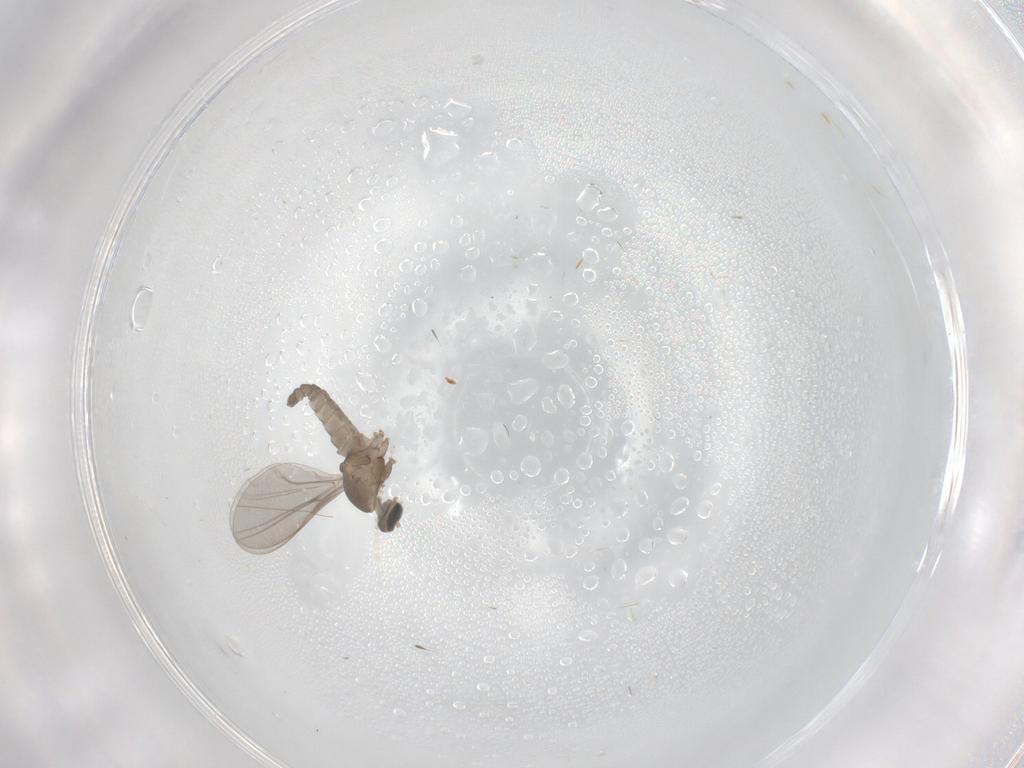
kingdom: Animalia
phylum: Arthropoda
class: Insecta
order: Diptera
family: Cecidomyiidae
